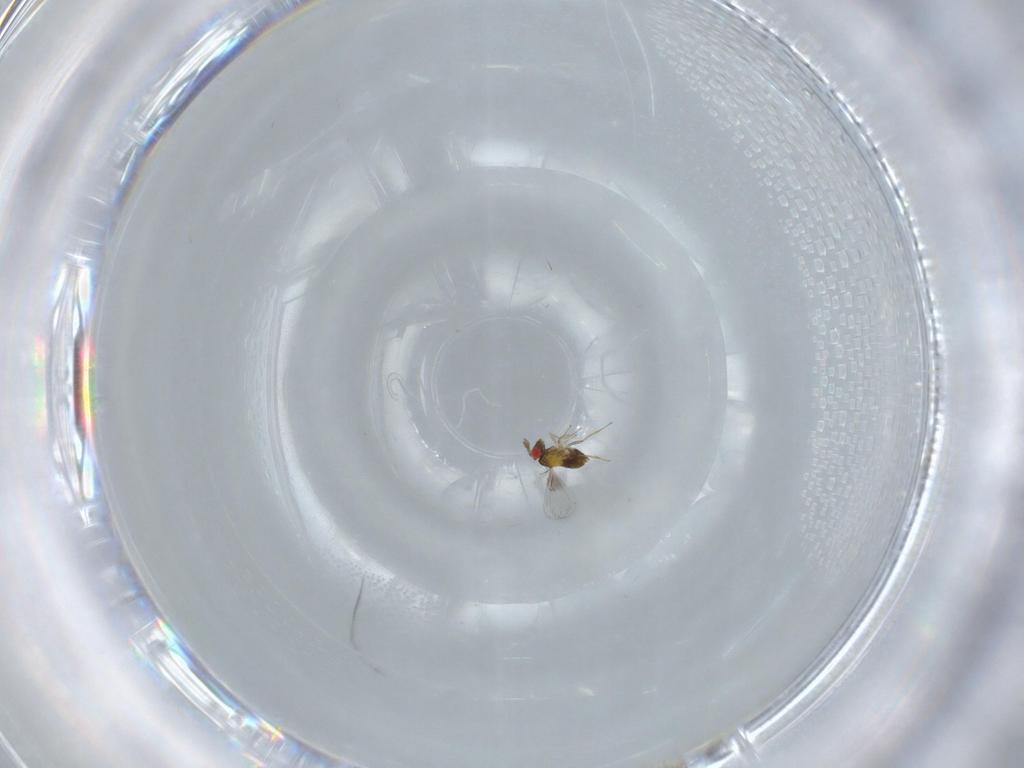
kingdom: Animalia
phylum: Arthropoda
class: Insecta
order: Hymenoptera
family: Trichogrammatidae
